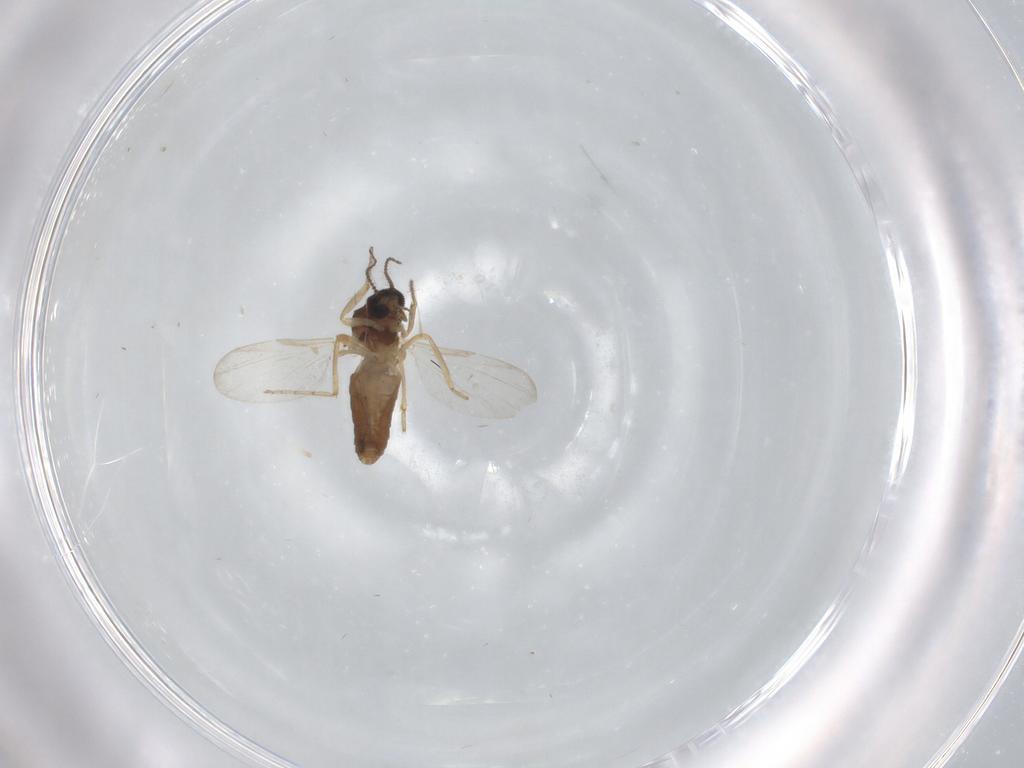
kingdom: Animalia
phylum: Arthropoda
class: Insecta
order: Diptera
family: Ceratopogonidae
